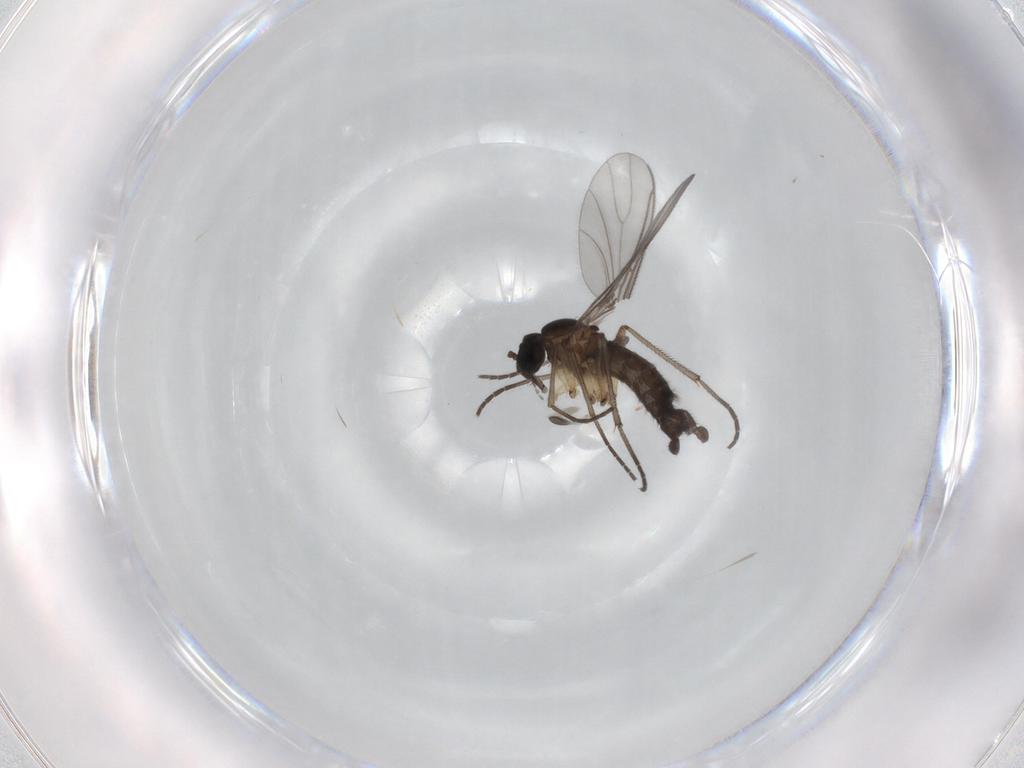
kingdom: Animalia
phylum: Arthropoda
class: Insecta
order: Diptera
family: Sciaridae
